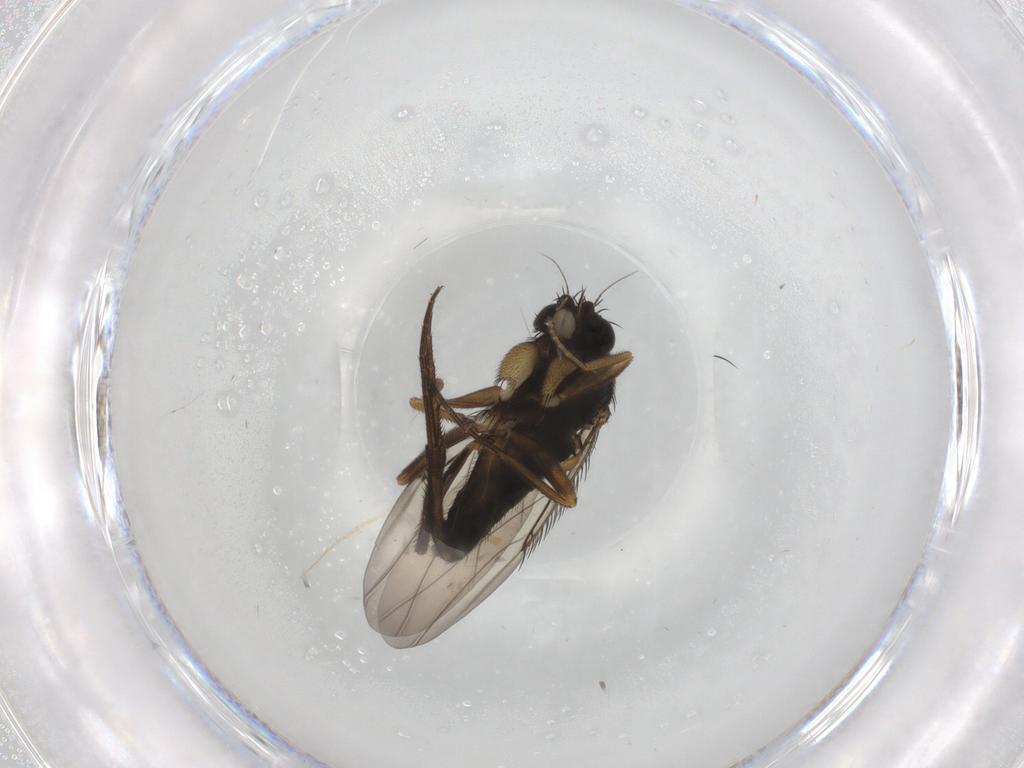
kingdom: Animalia
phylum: Arthropoda
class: Insecta
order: Diptera
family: Phoridae
